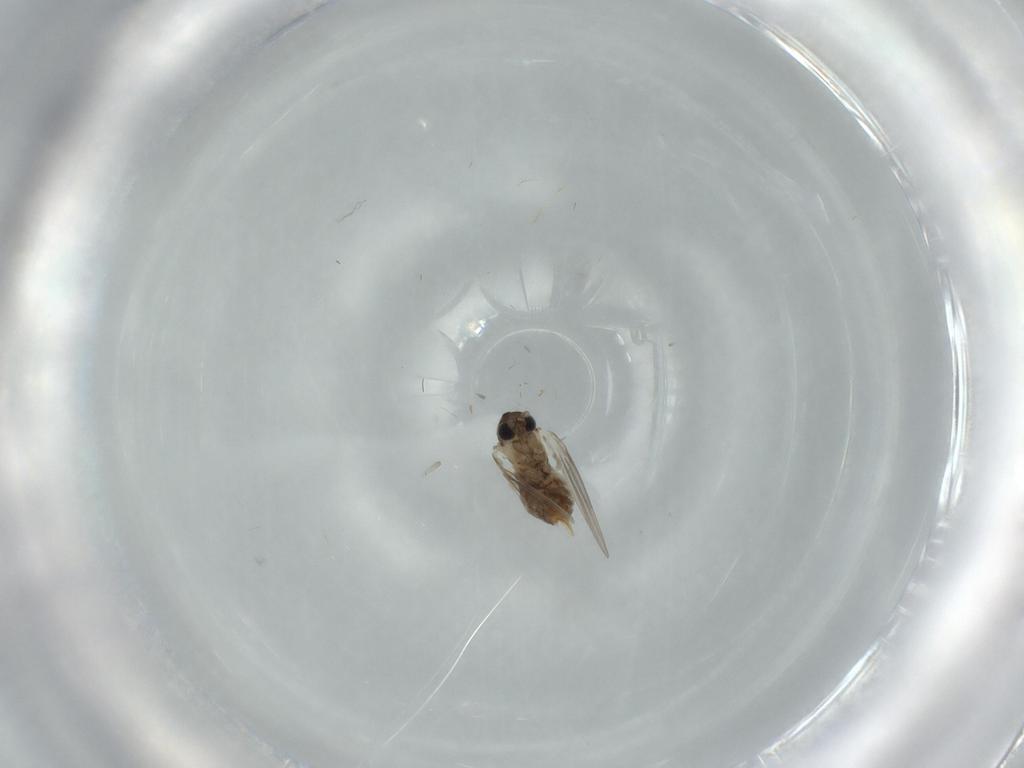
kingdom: Animalia
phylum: Arthropoda
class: Insecta
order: Diptera
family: Psychodidae
